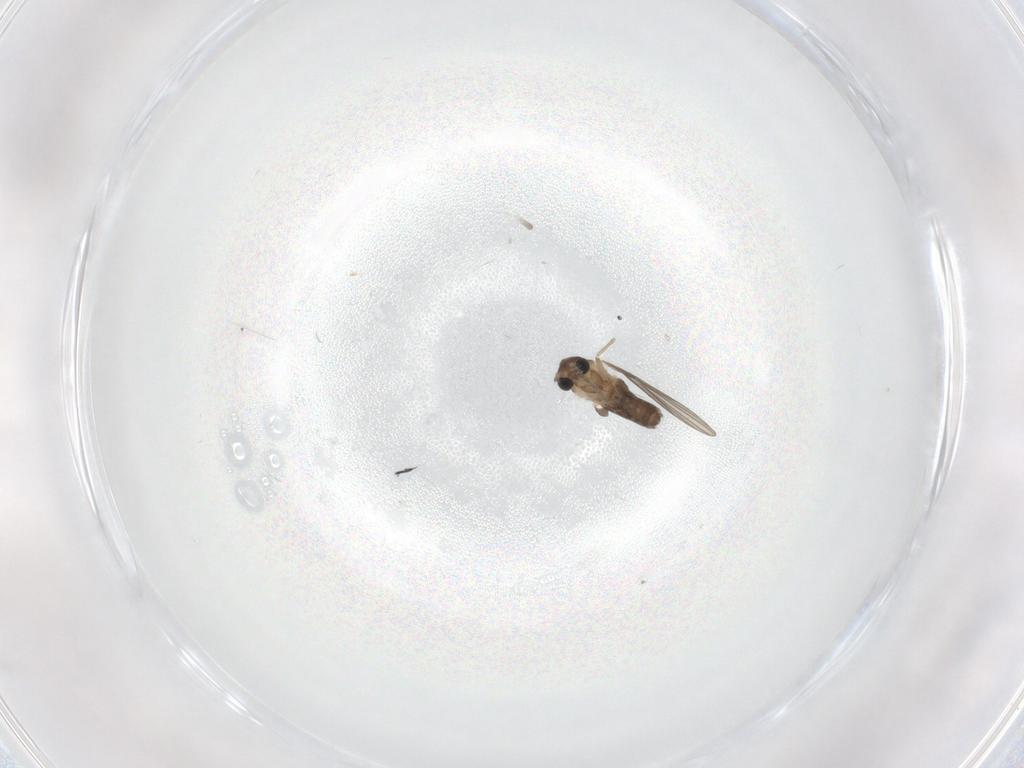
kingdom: Animalia
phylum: Arthropoda
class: Insecta
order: Diptera
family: Psychodidae
